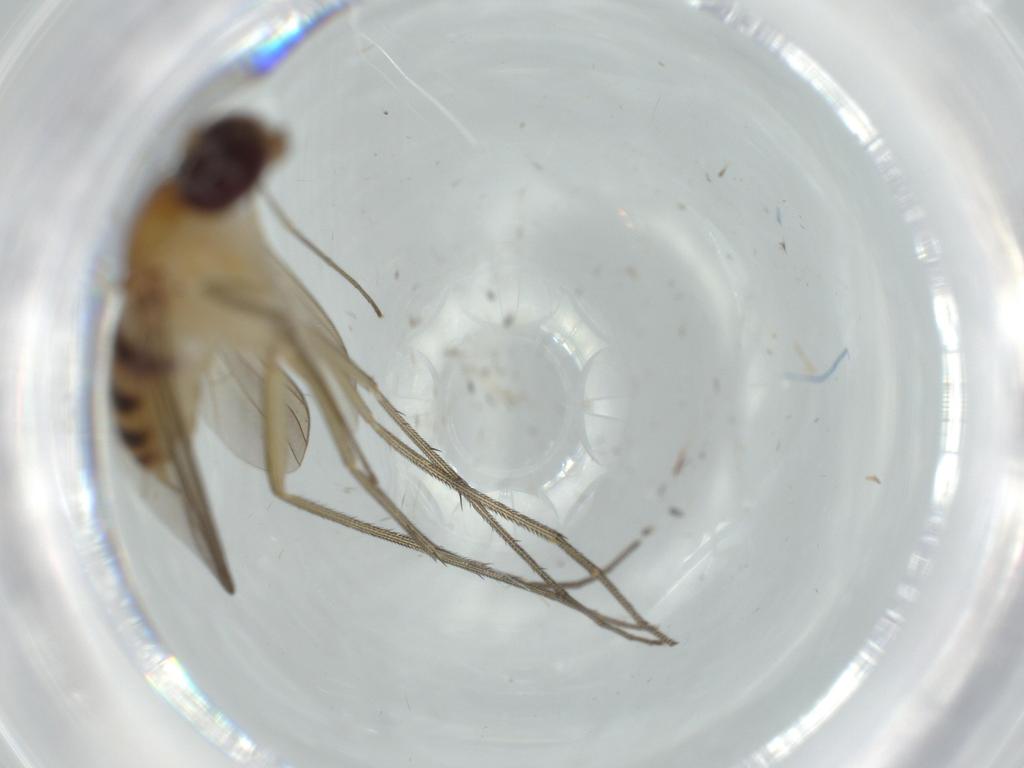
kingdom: Animalia
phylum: Arthropoda
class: Insecta
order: Diptera
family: Dolichopodidae
